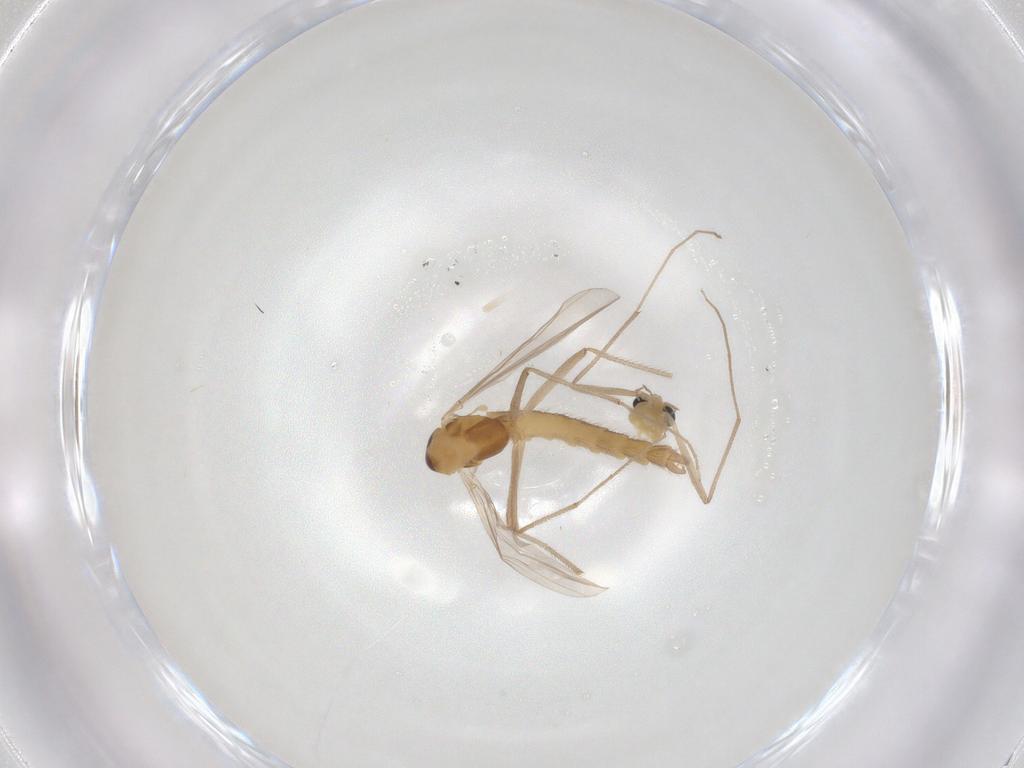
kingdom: Animalia
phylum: Arthropoda
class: Insecta
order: Diptera
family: Chironomidae
